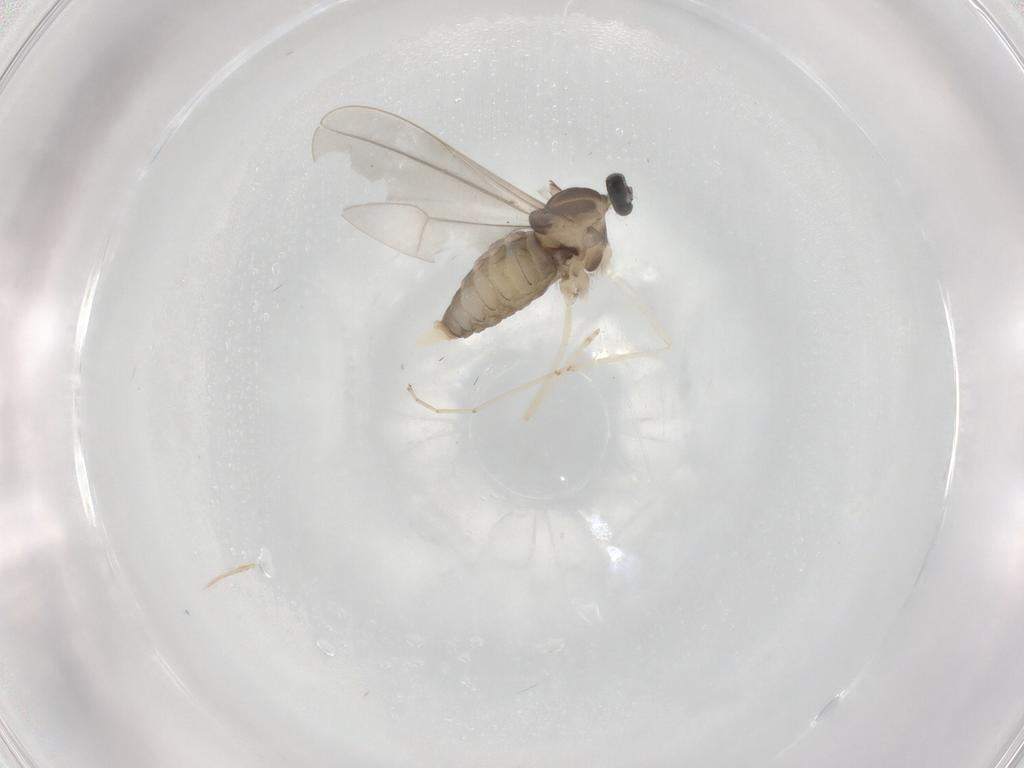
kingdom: Animalia
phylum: Arthropoda
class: Insecta
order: Diptera
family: Cecidomyiidae
